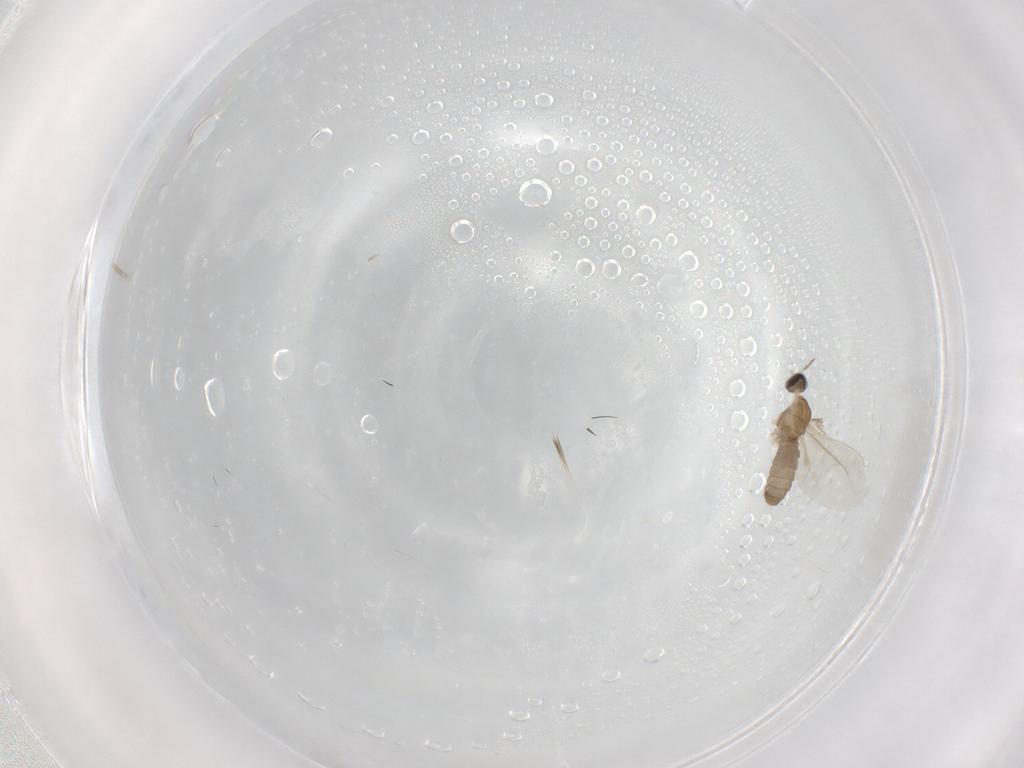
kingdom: Animalia
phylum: Arthropoda
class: Insecta
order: Diptera
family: Cecidomyiidae
